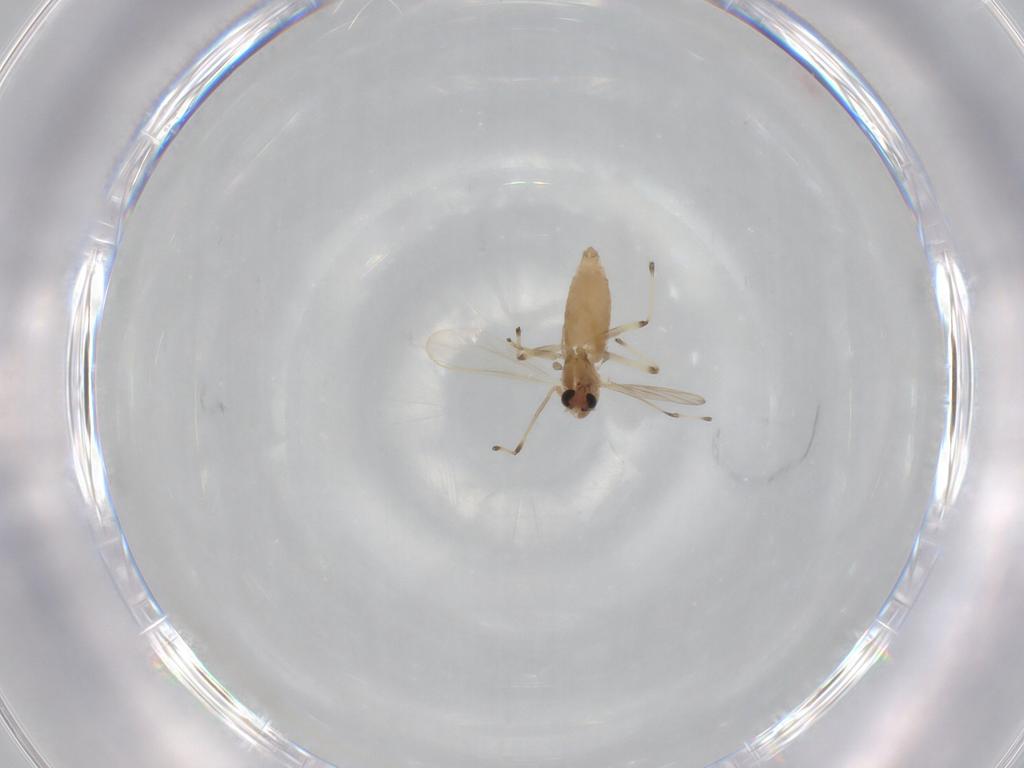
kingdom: Animalia
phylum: Arthropoda
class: Insecta
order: Diptera
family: Chironomidae
